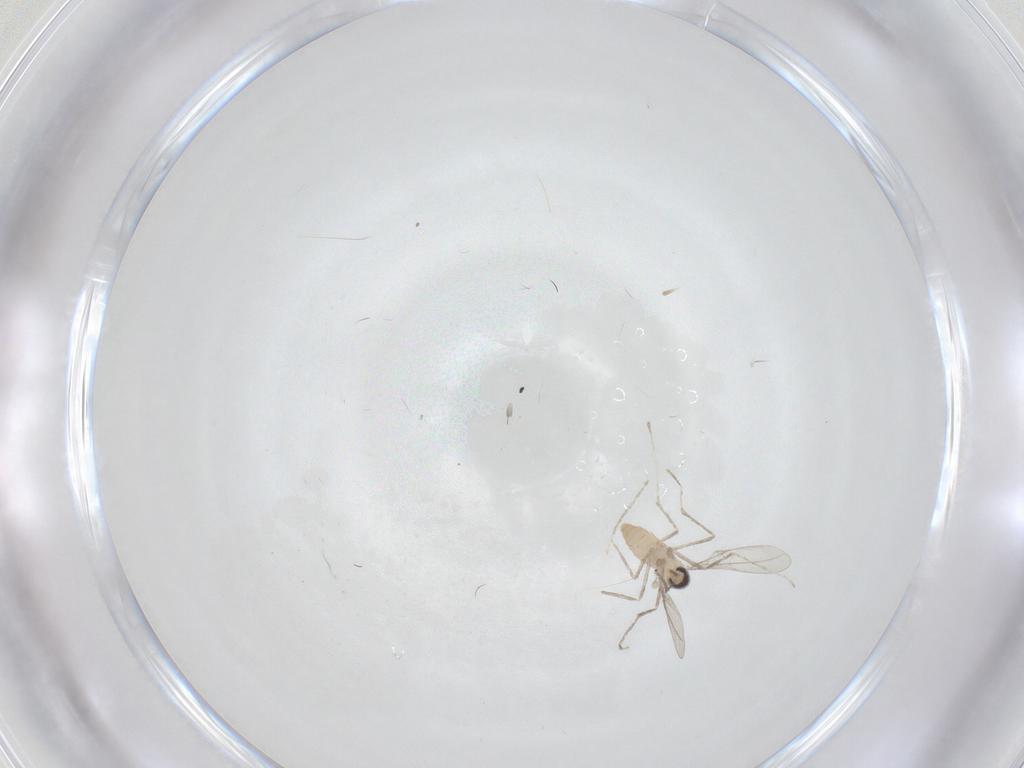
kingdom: Animalia
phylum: Arthropoda
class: Insecta
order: Diptera
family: Cecidomyiidae
